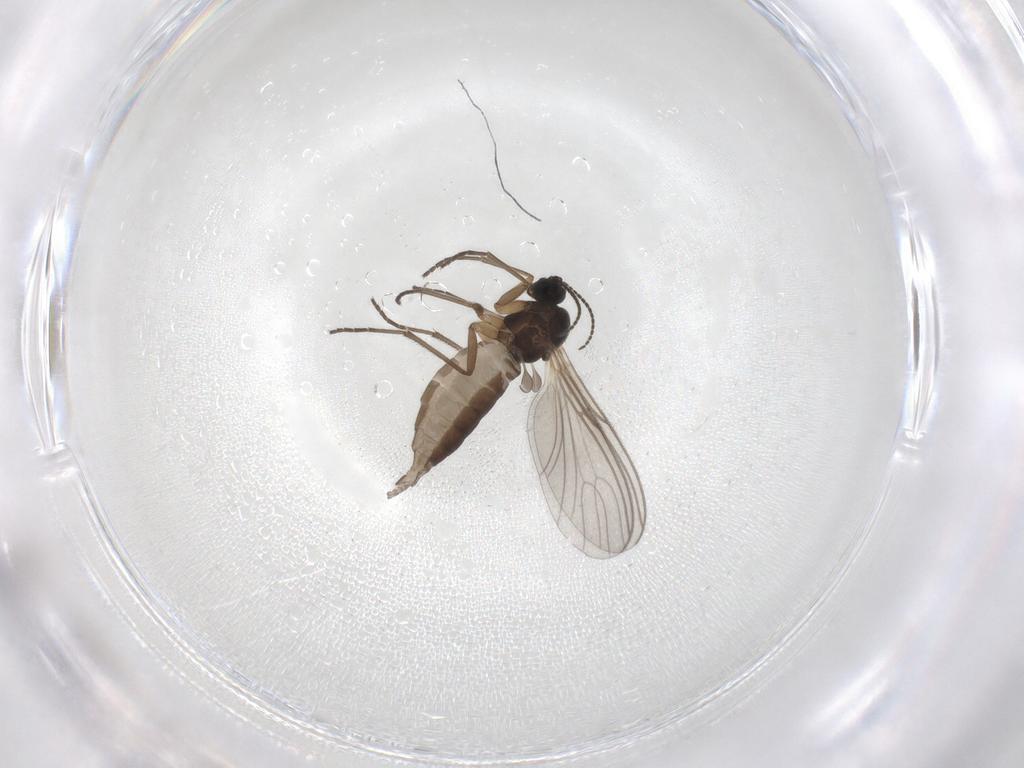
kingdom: Animalia
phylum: Arthropoda
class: Insecta
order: Diptera
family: Sciaridae
